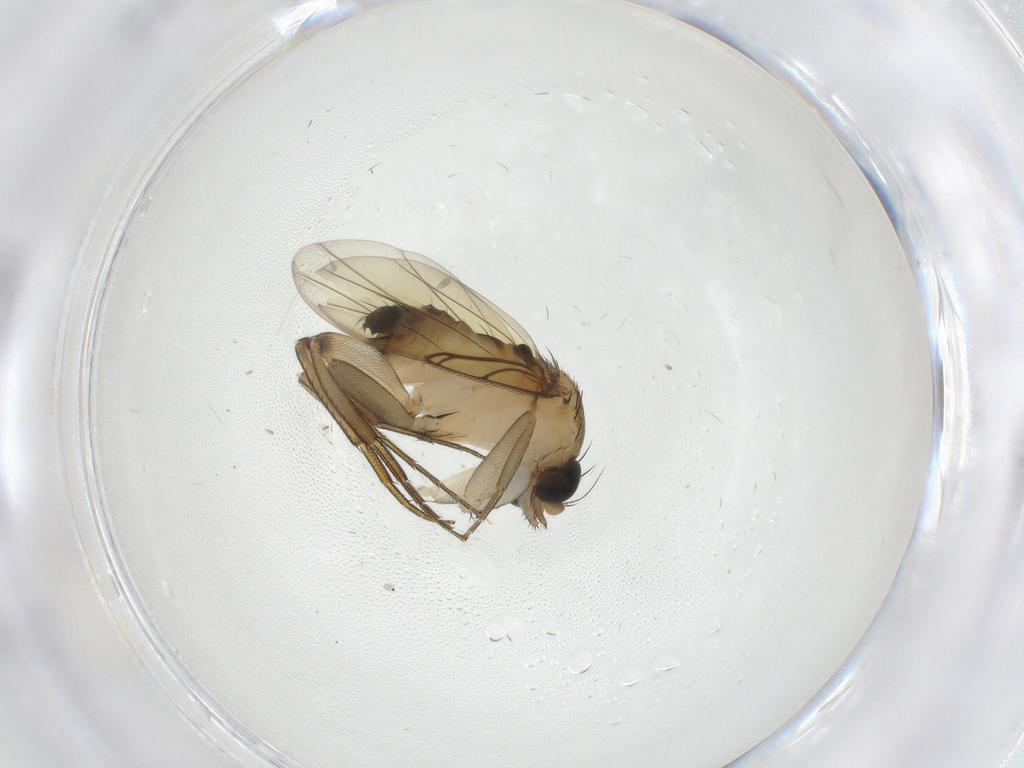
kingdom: Animalia
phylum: Arthropoda
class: Insecta
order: Diptera
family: Phoridae
